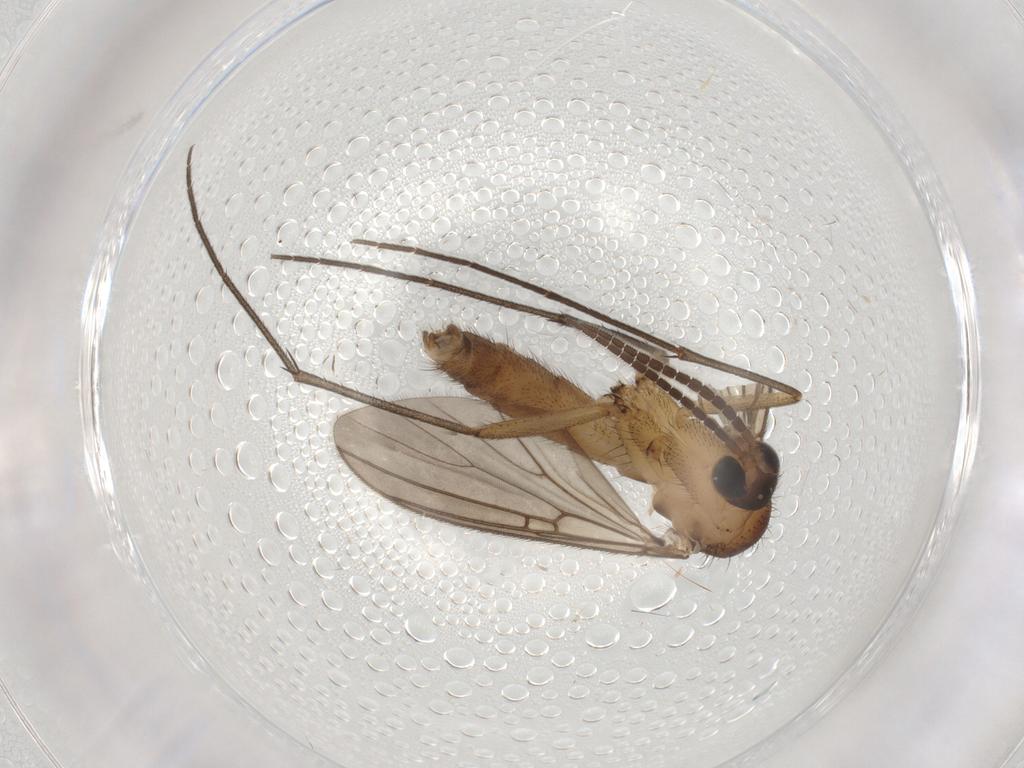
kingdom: Animalia
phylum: Arthropoda
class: Insecta
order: Diptera
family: Sciaridae
